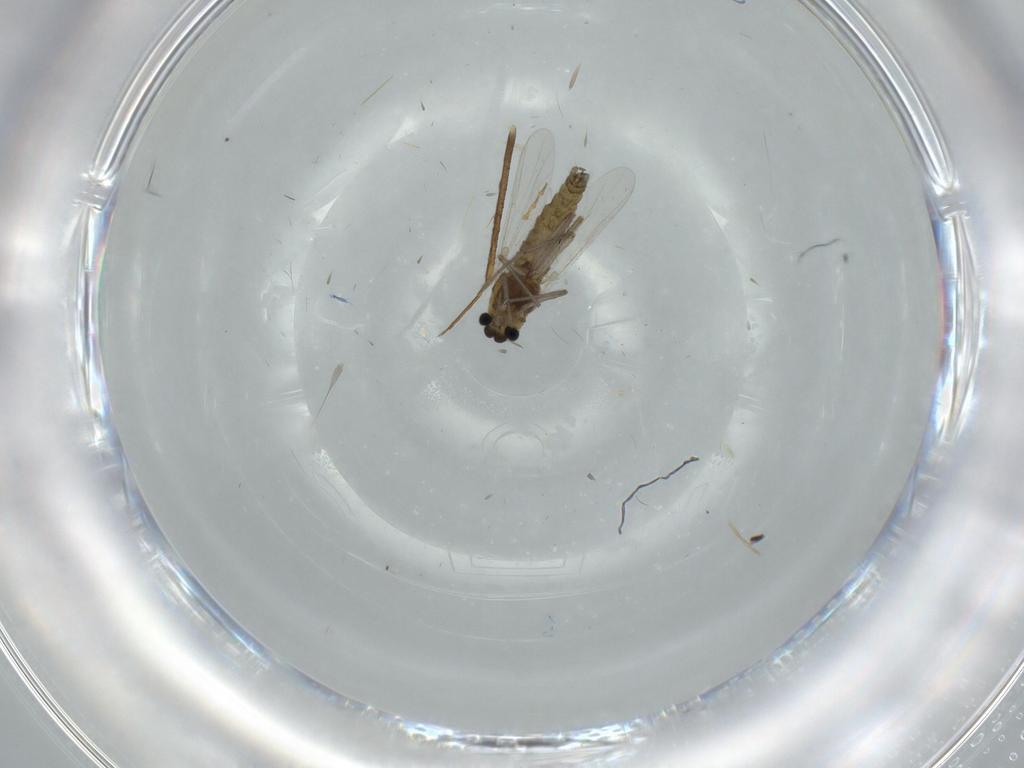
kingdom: Animalia
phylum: Arthropoda
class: Insecta
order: Diptera
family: Chironomidae
